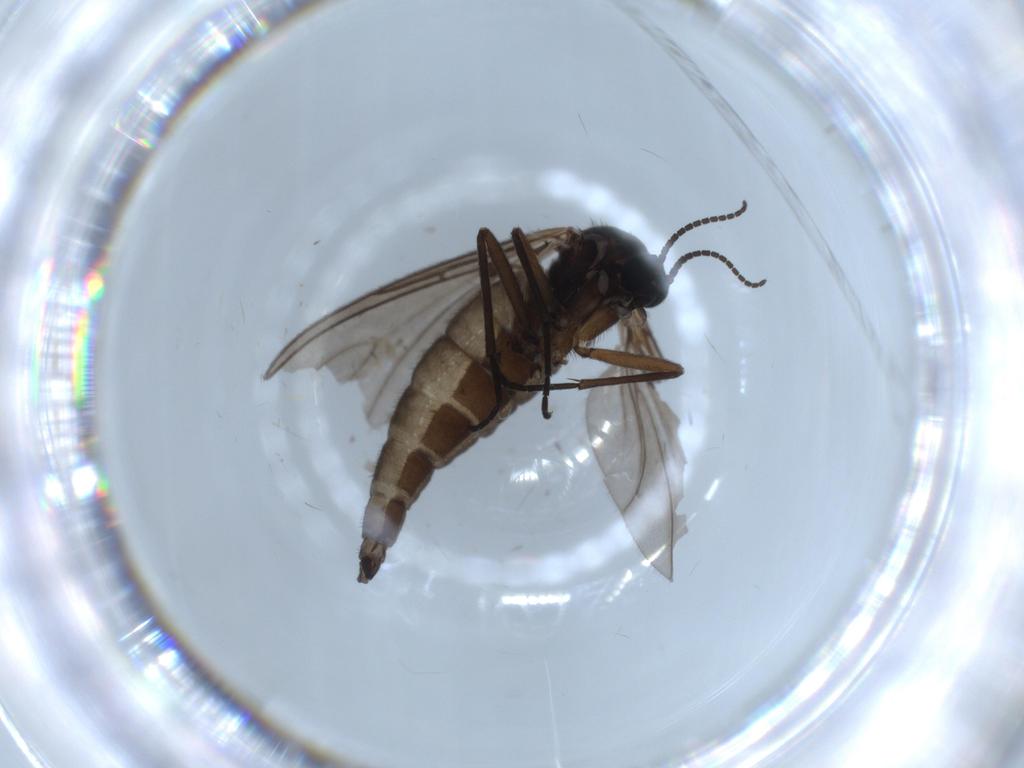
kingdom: Animalia
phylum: Arthropoda
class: Insecta
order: Diptera
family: Sciaridae
